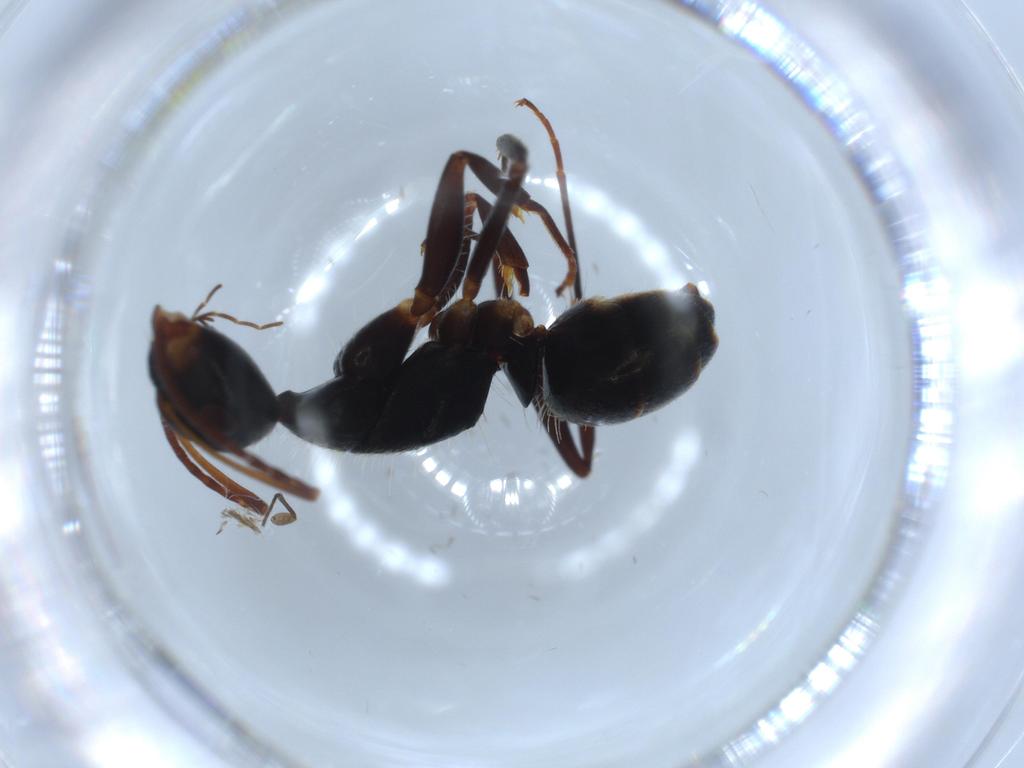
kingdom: Animalia
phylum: Arthropoda
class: Insecta
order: Hymenoptera
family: Formicidae
